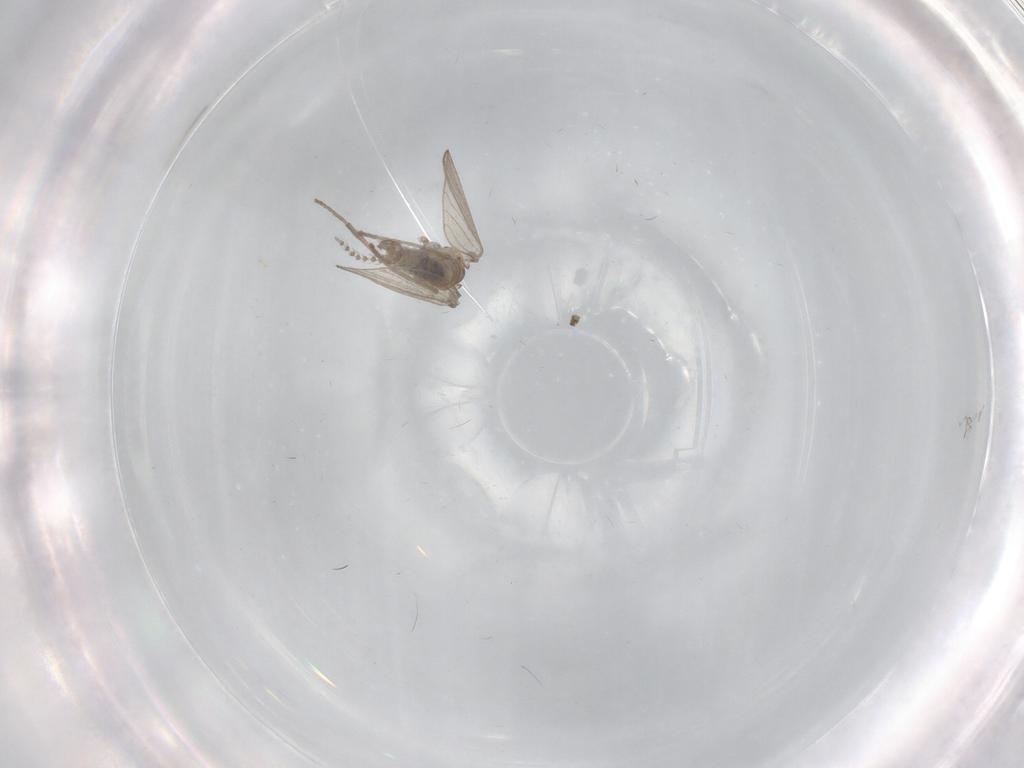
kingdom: Animalia
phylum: Arthropoda
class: Insecta
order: Diptera
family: Psychodidae
